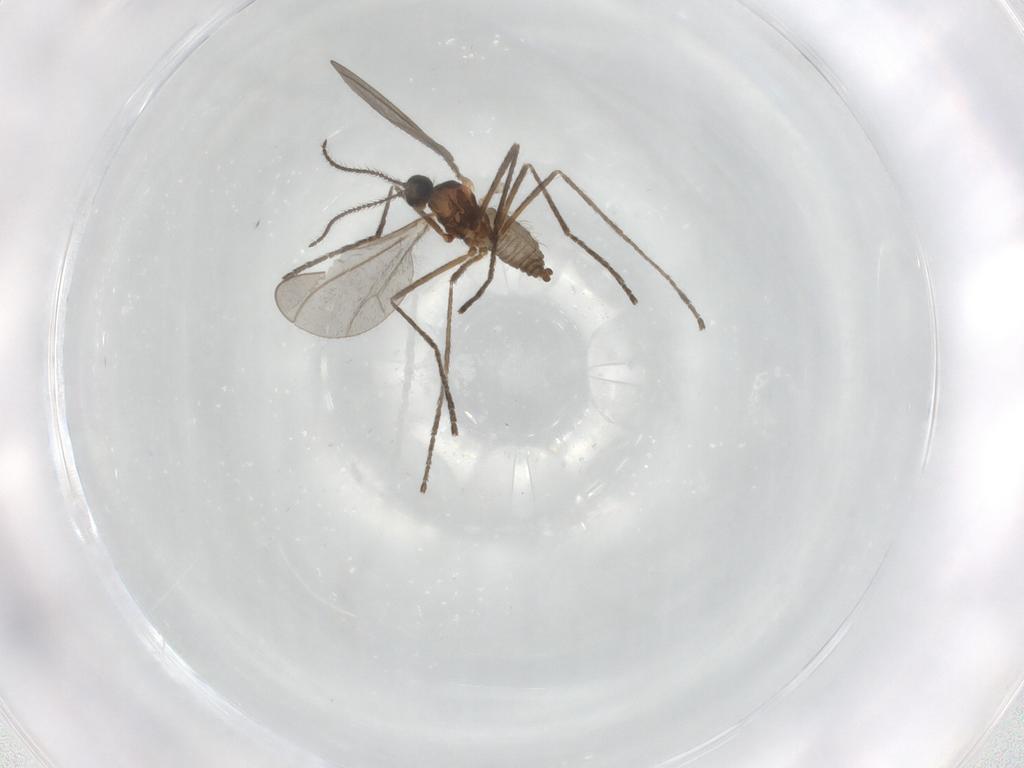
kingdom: Animalia
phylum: Arthropoda
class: Insecta
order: Diptera
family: Cecidomyiidae
